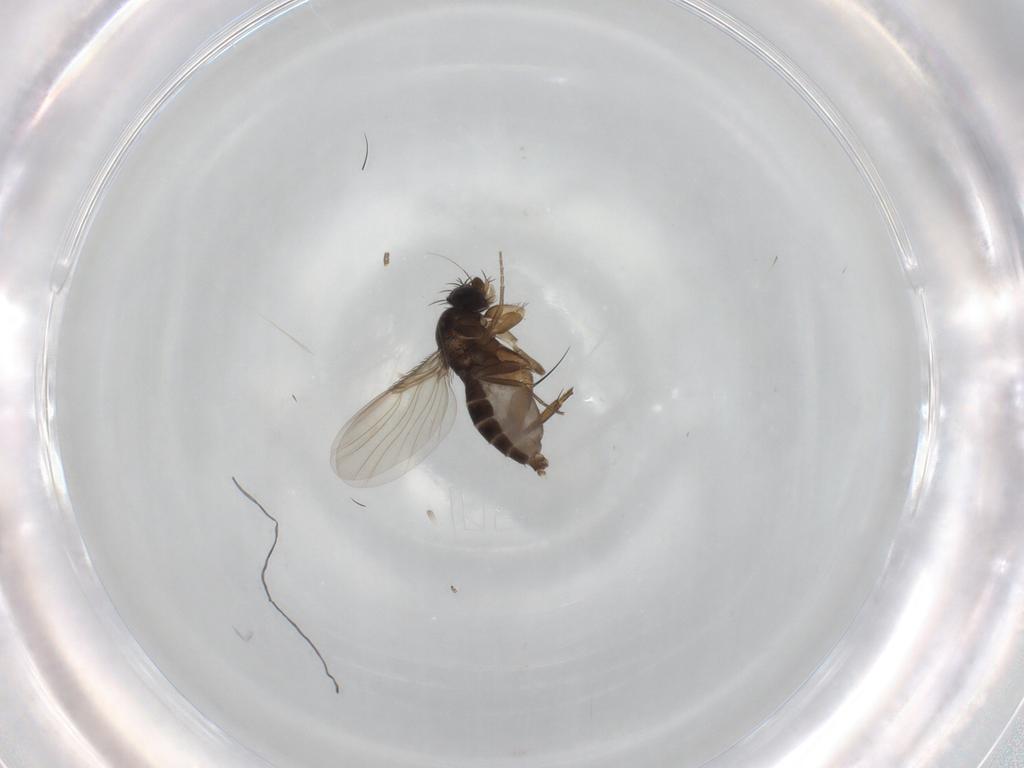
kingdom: Animalia
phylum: Arthropoda
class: Insecta
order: Diptera
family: Phoridae
